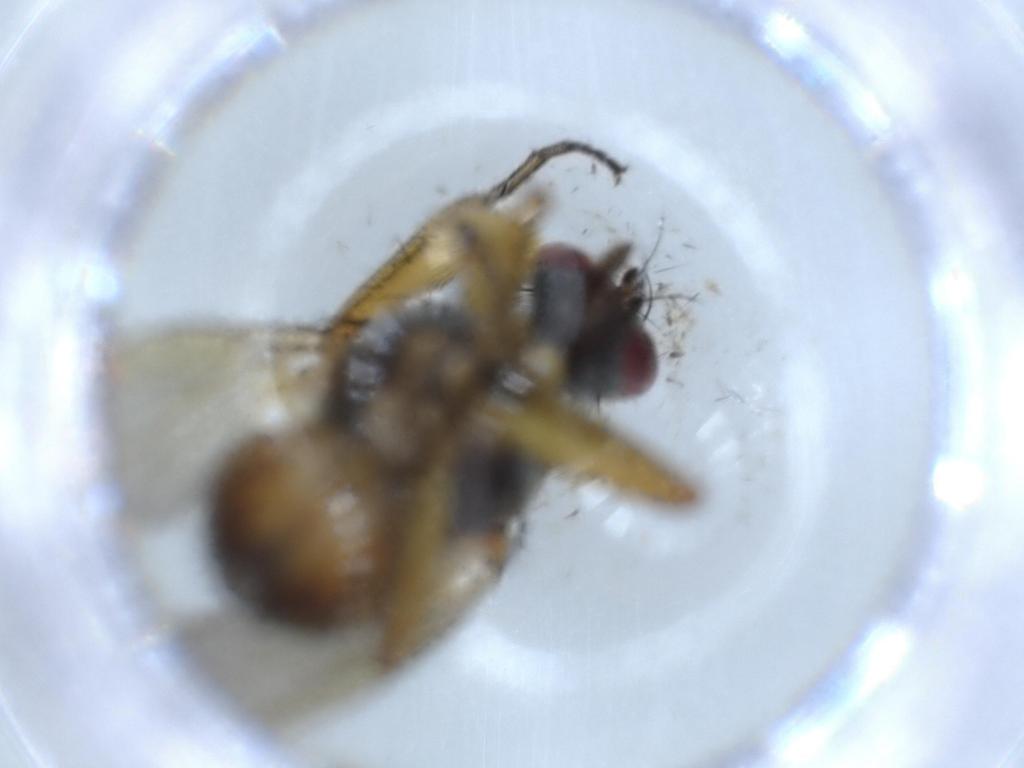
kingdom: Animalia
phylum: Arthropoda
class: Insecta
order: Diptera
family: Muscidae
